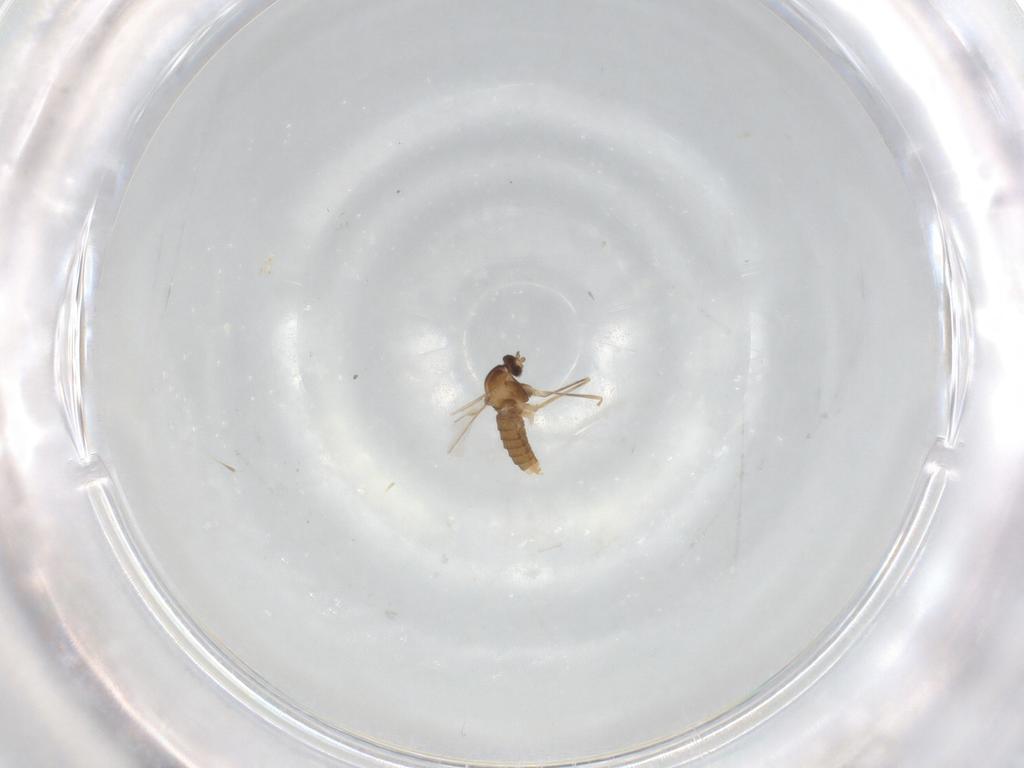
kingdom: Animalia
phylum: Arthropoda
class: Insecta
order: Diptera
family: Cecidomyiidae
